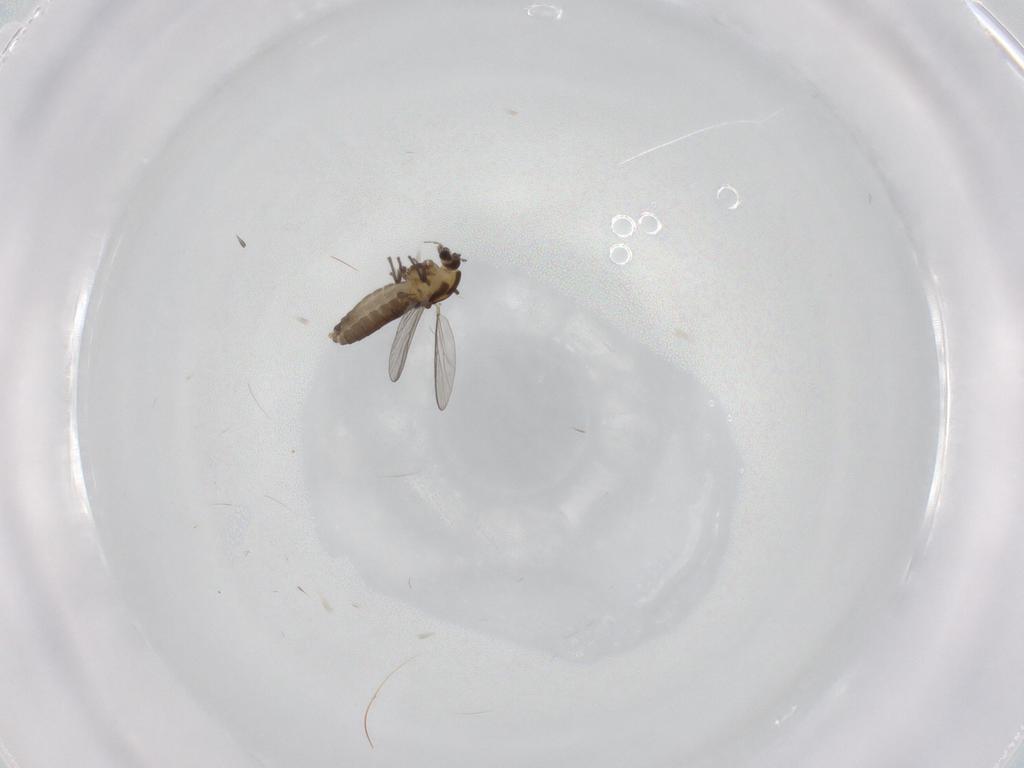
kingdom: Animalia
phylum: Arthropoda
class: Insecta
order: Diptera
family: Chironomidae
